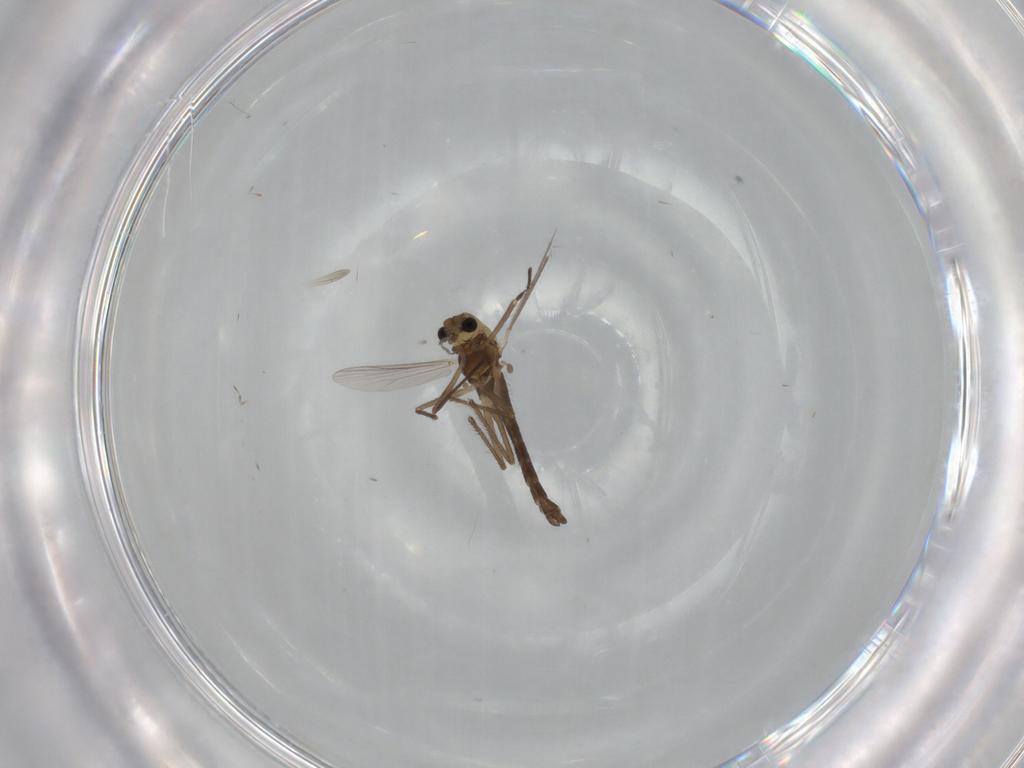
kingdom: Animalia
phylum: Arthropoda
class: Insecta
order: Diptera
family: Chironomidae
